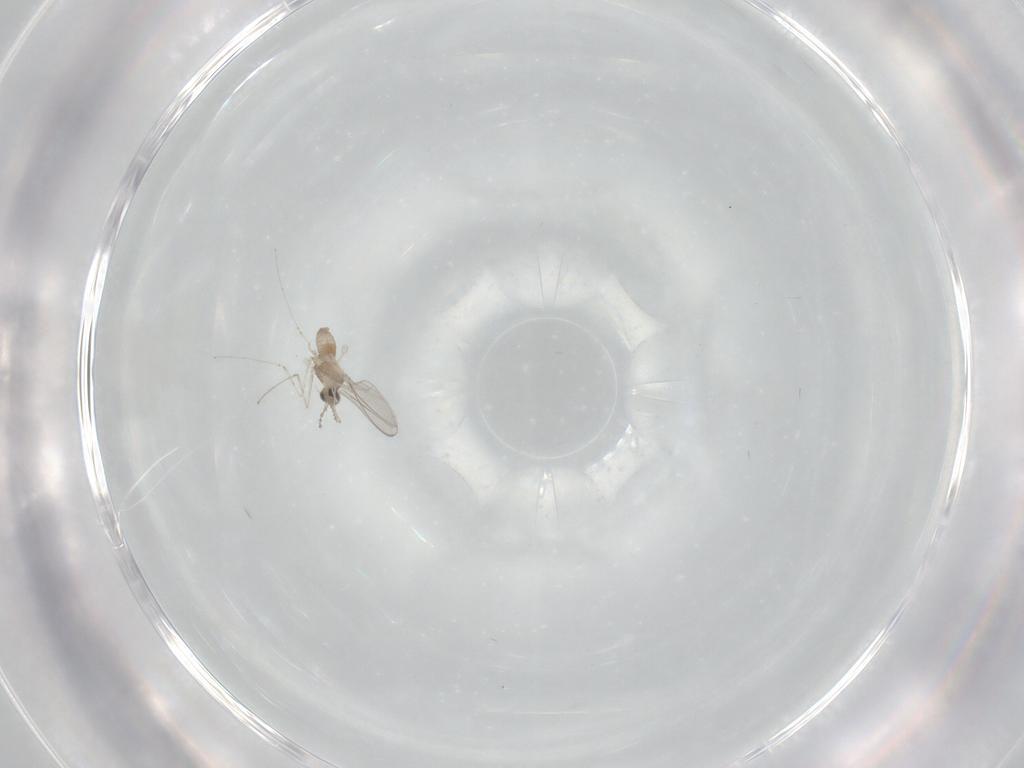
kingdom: Animalia
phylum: Arthropoda
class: Insecta
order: Diptera
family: Cecidomyiidae
